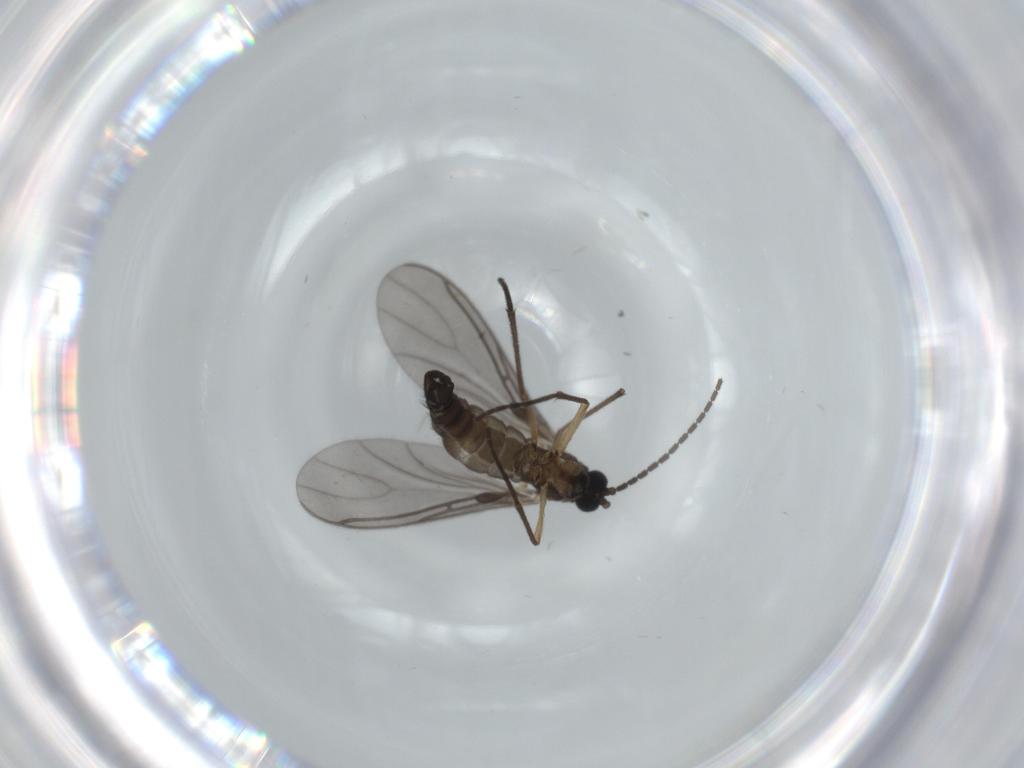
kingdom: Animalia
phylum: Arthropoda
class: Insecta
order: Diptera
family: Sciaridae
